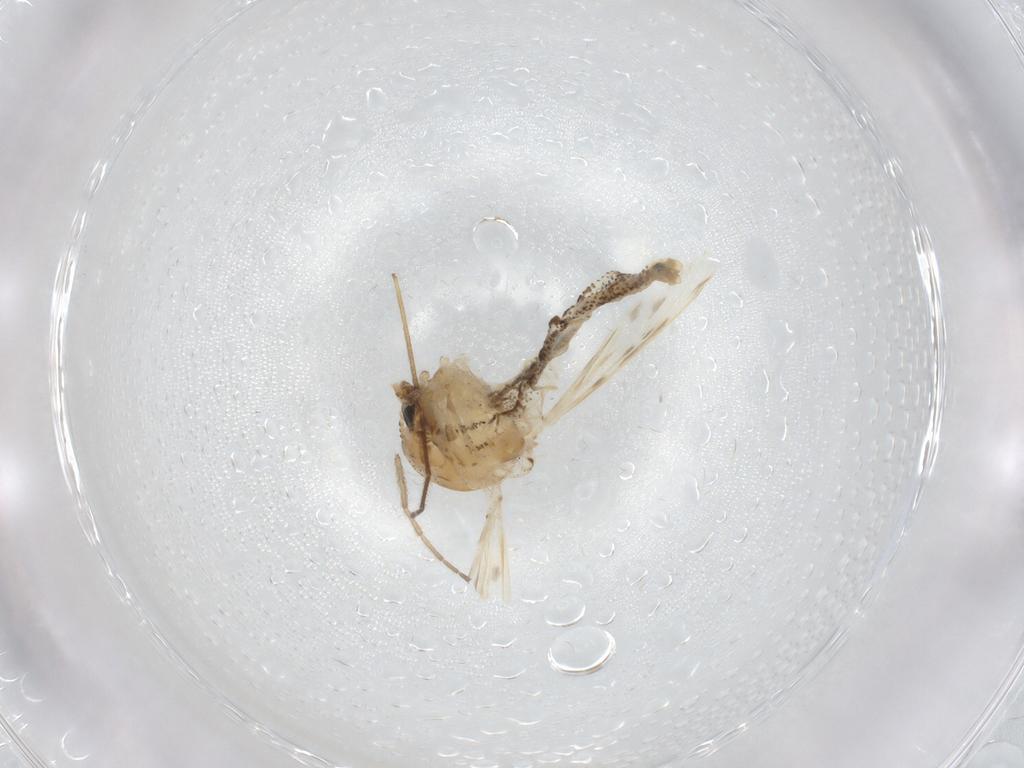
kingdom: Animalia
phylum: Arthropoda
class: Insecta
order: Diptera
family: Chaoboridae
